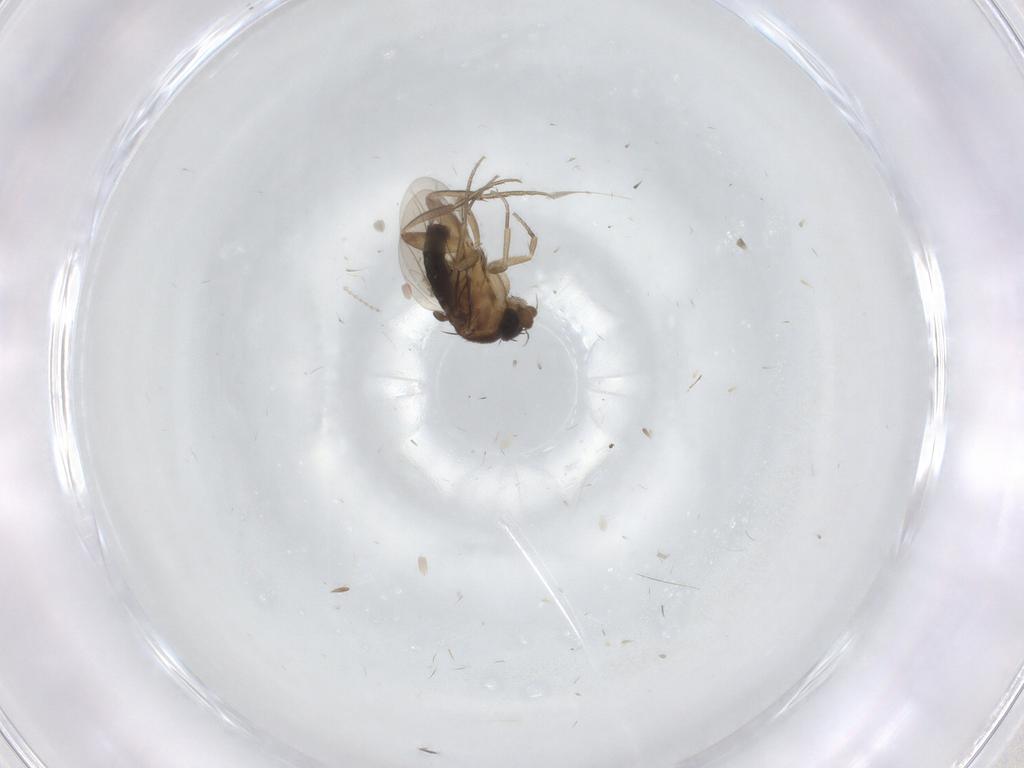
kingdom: Animalia
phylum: Arthropoda
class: Insecta
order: Diptera
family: Phoridae
